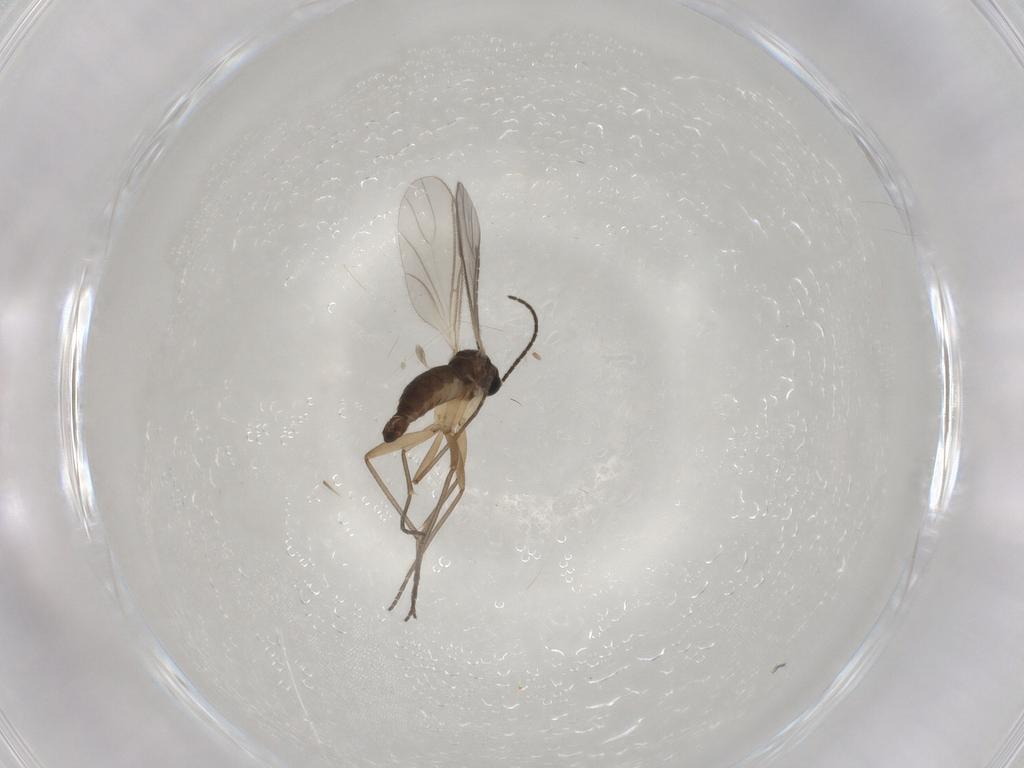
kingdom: Animalia
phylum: Arthropoda
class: Insecta
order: Diptera
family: Sciaridae
